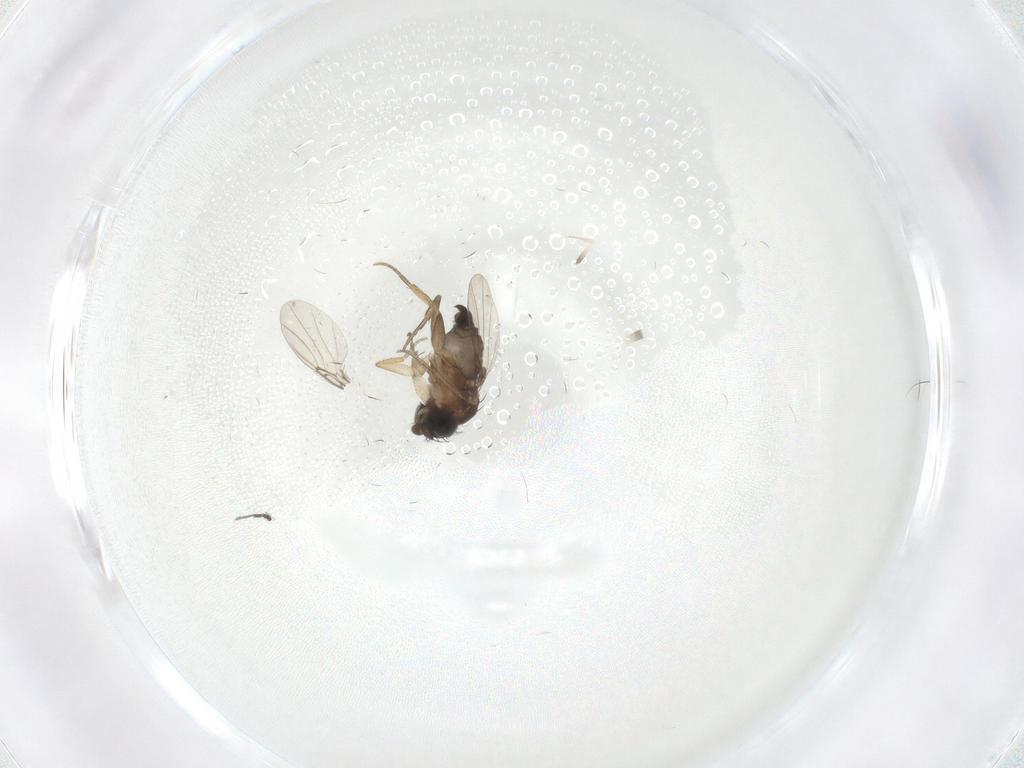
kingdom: Animalia
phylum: Arthropoda
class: Insecta
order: Diptera
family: Phoridae
